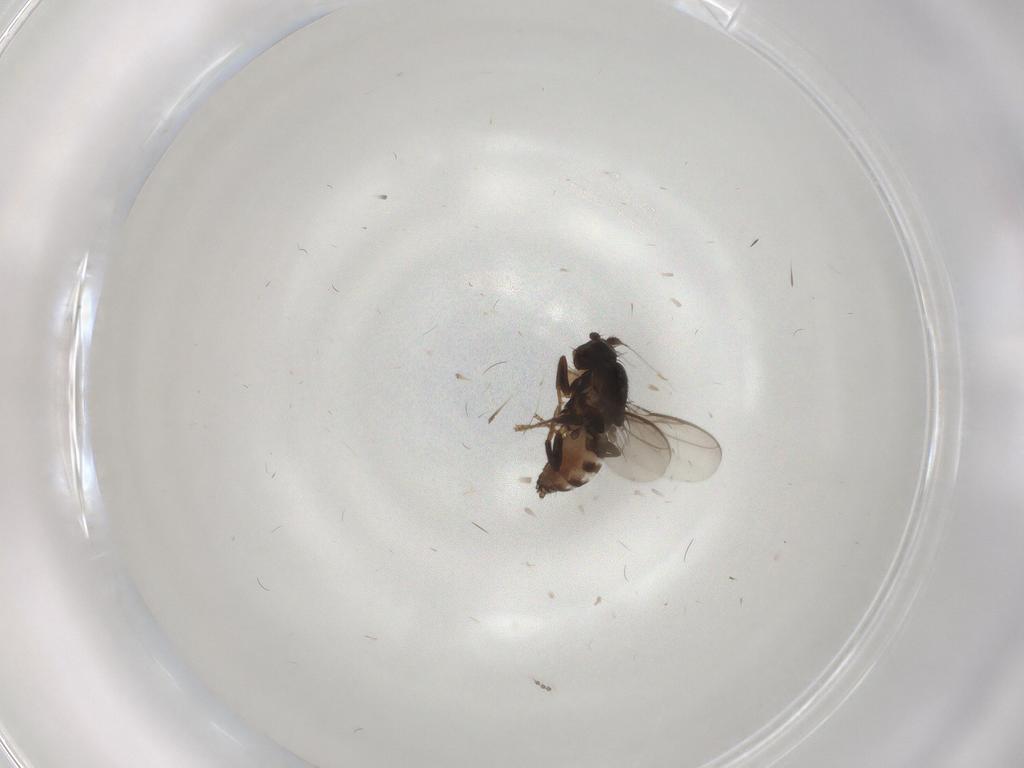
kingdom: Animalia
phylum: Arthropoda
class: Insecta
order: Diptera
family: Sphaeroceridae
